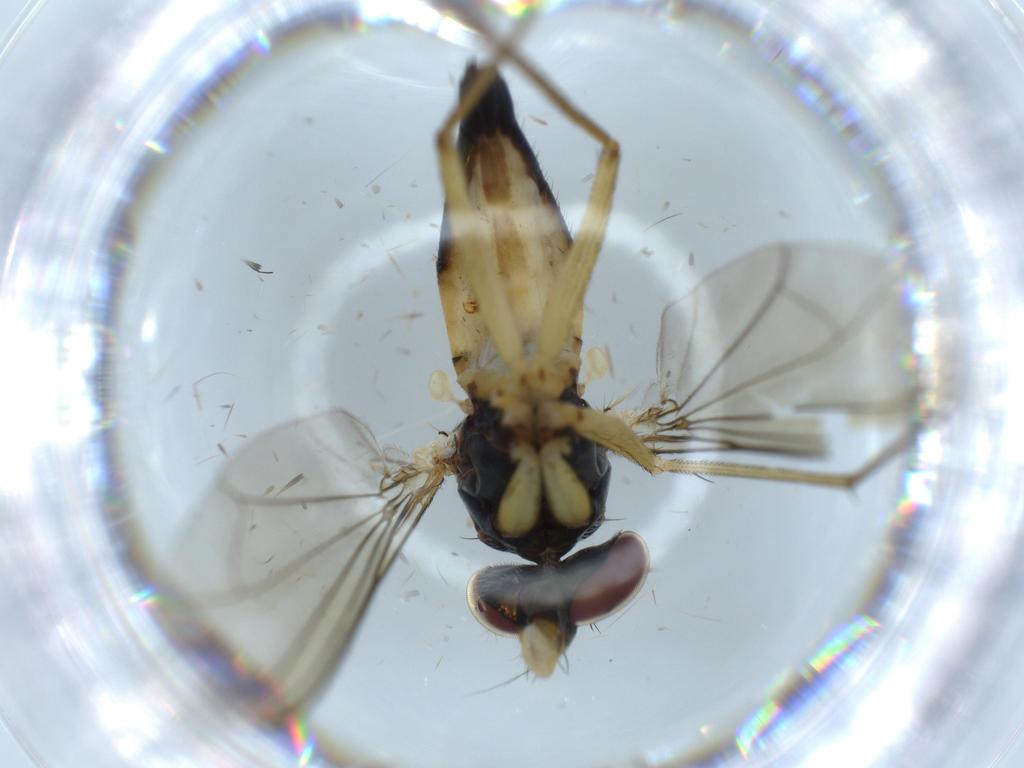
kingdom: Animalia
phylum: Arthropoda
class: Insecta
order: Diptera
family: Dolichopodidae
